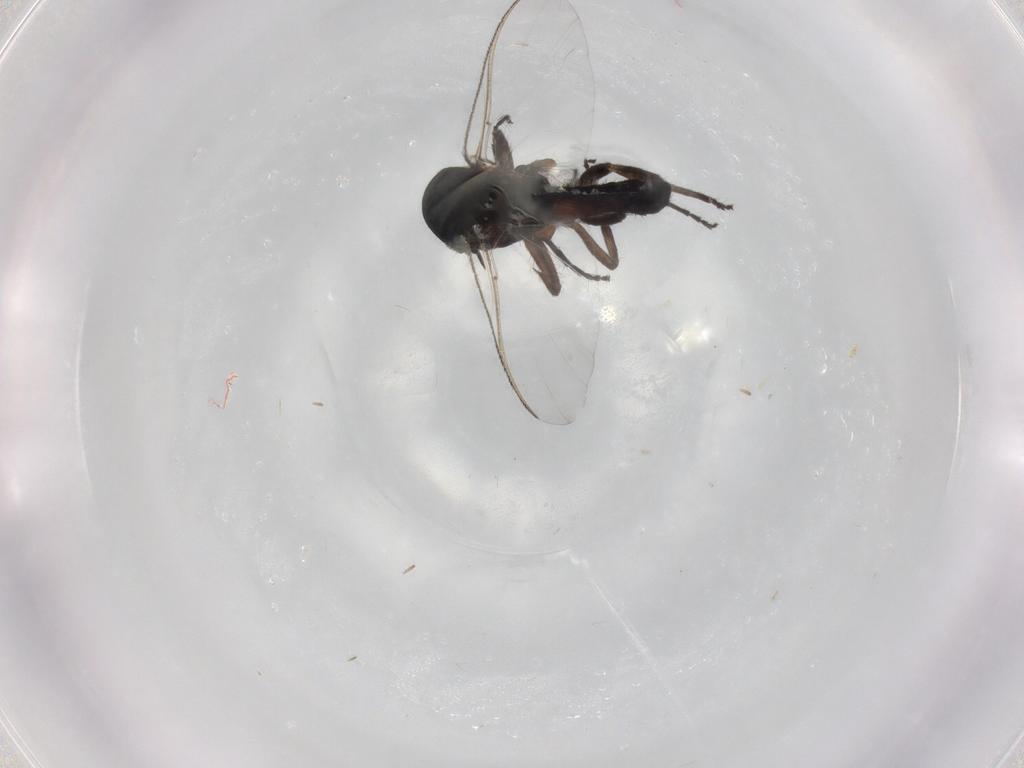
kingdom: Animalia
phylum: Arthropoda
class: Insecta
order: Diptera
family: Simuliidae
